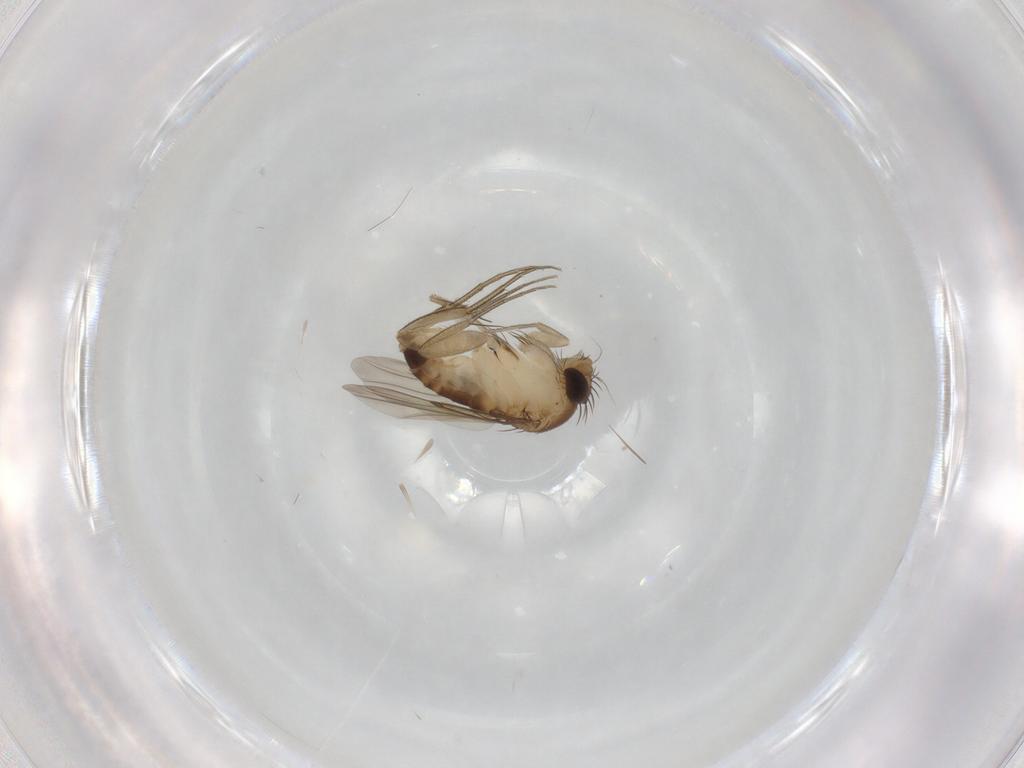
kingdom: Animalia
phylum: Arthropoda
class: Insecta
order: Diptera
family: Phoridae
